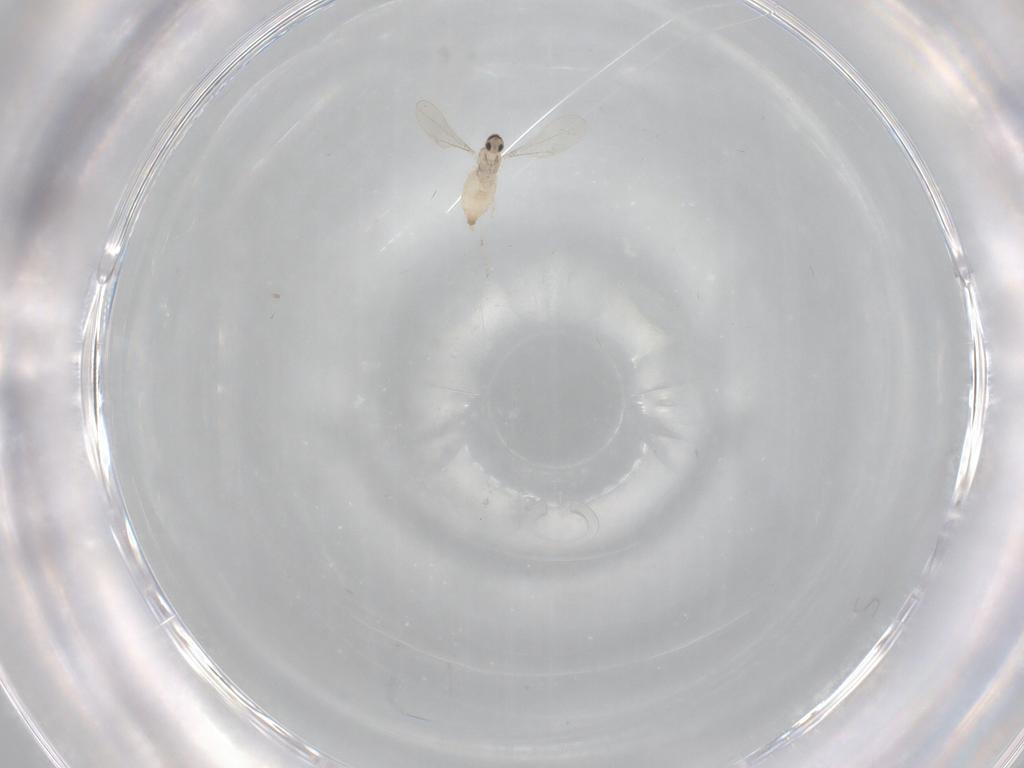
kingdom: Animalia
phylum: Arthropoda
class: Insecta
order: Diptera
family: Cecidomyiidae
